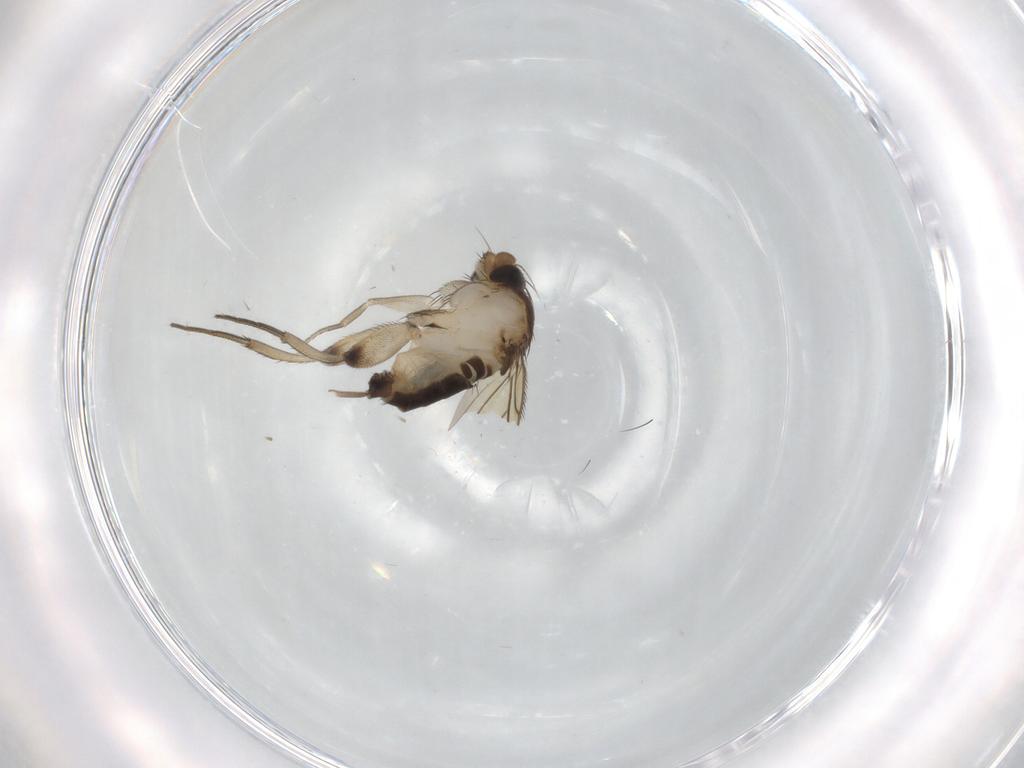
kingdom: Animalia
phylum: Arthropoda
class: Insecta
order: Diptera
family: Phoridae
